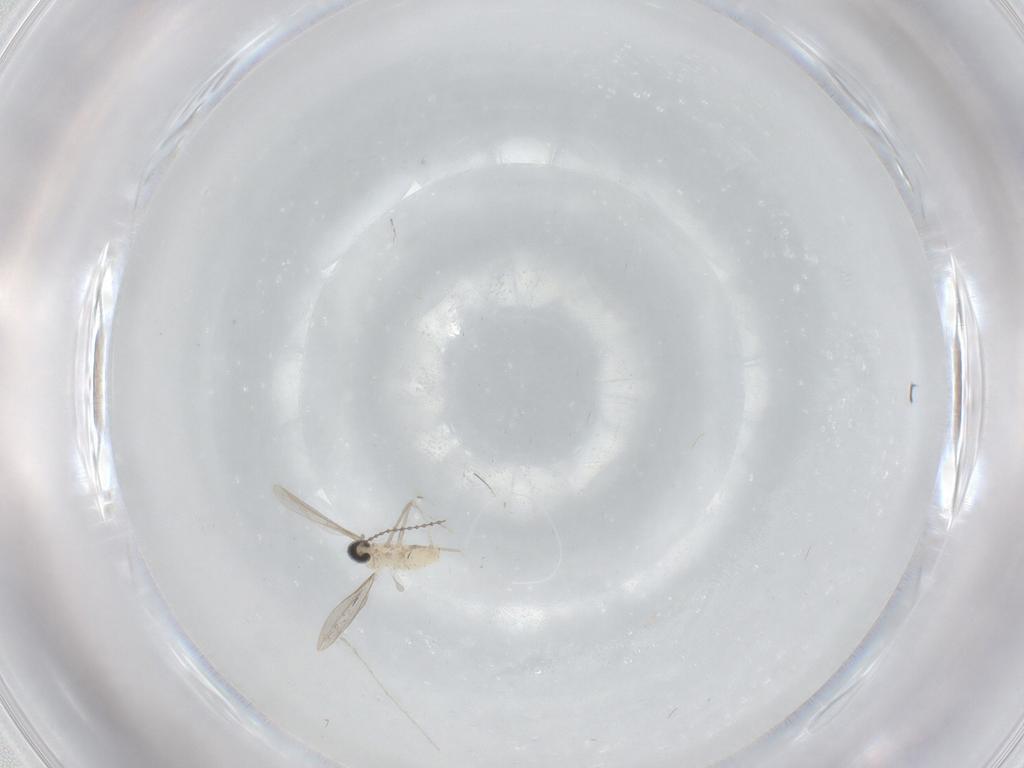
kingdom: Animalia
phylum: Arthropoda
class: Insecta
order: Diptera
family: Cecidomyiidae
